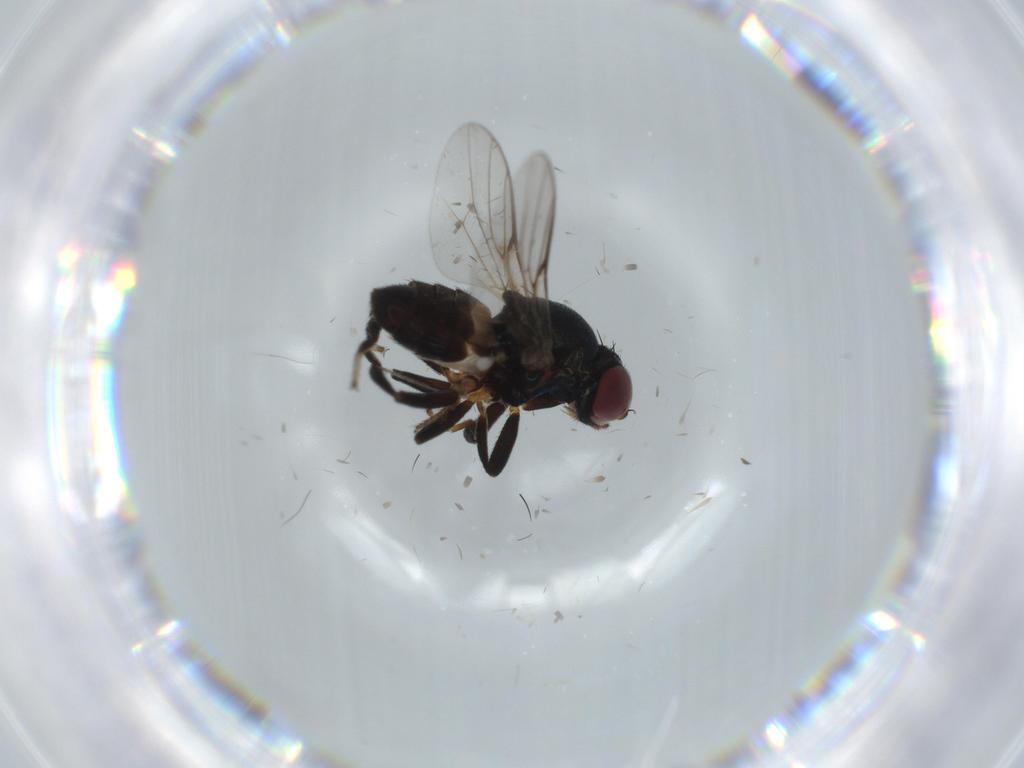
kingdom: Animalia
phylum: Arthropoda
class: Insecta
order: Diptera
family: Chloropidae
